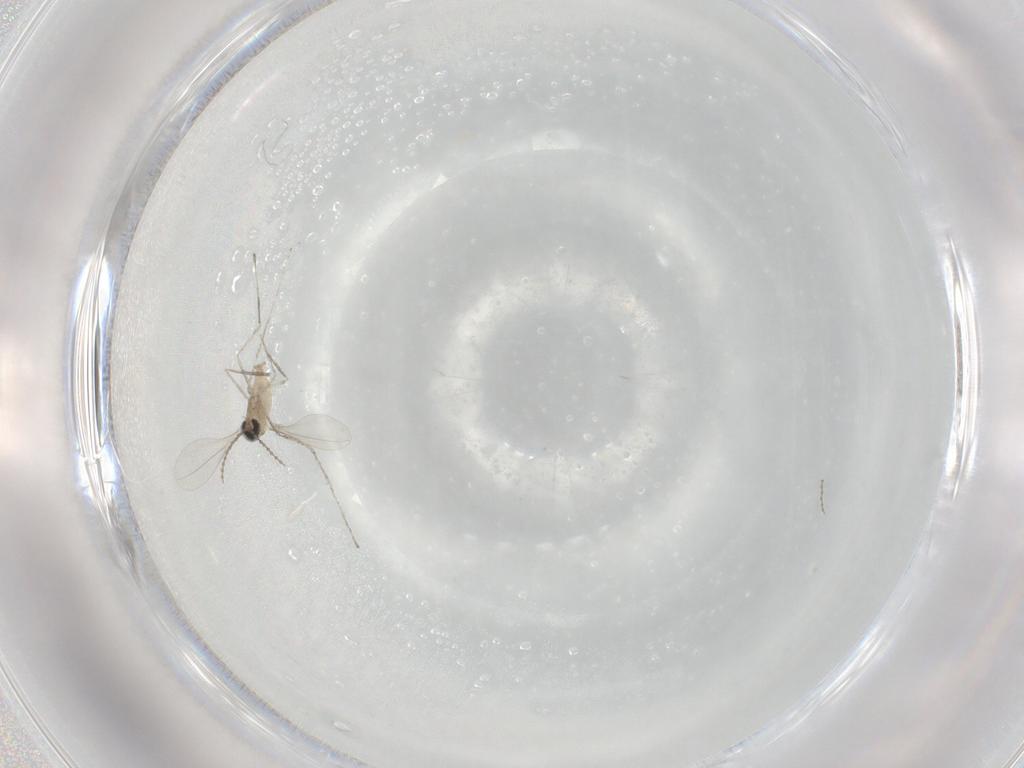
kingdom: Animalia
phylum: Arthropoda
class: Insecta
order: Diptera
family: Cecidomyiidae
